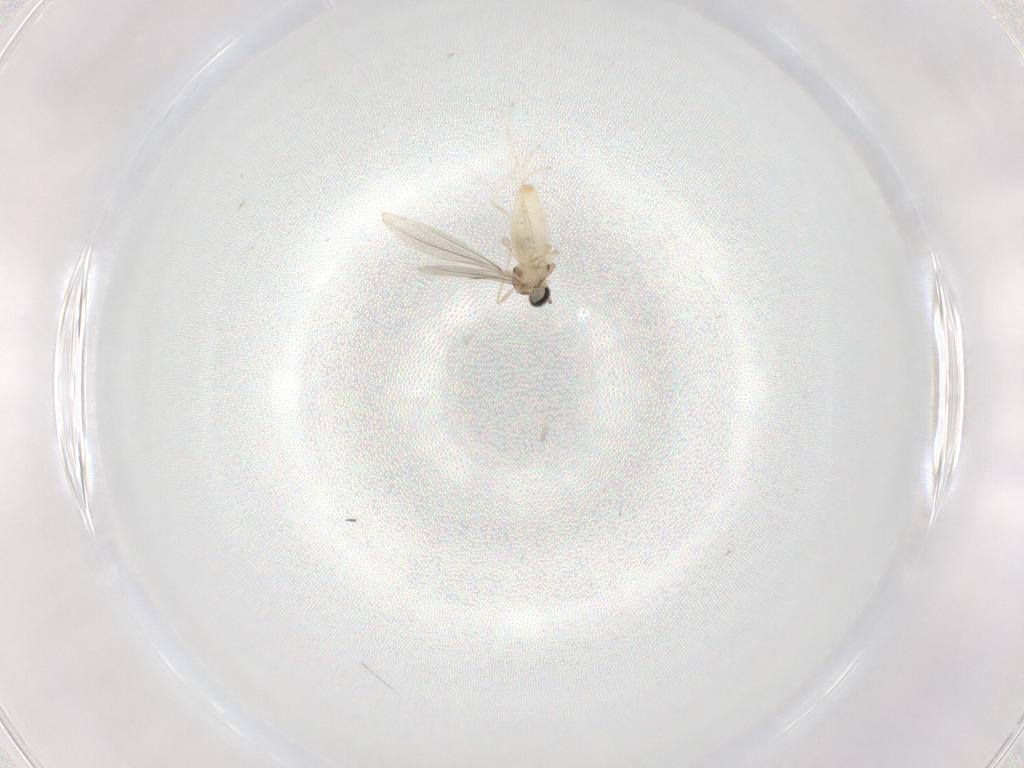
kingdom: Animalia
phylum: Arthropoda
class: Insecta
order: Diptera
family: Cecidomyiidae
